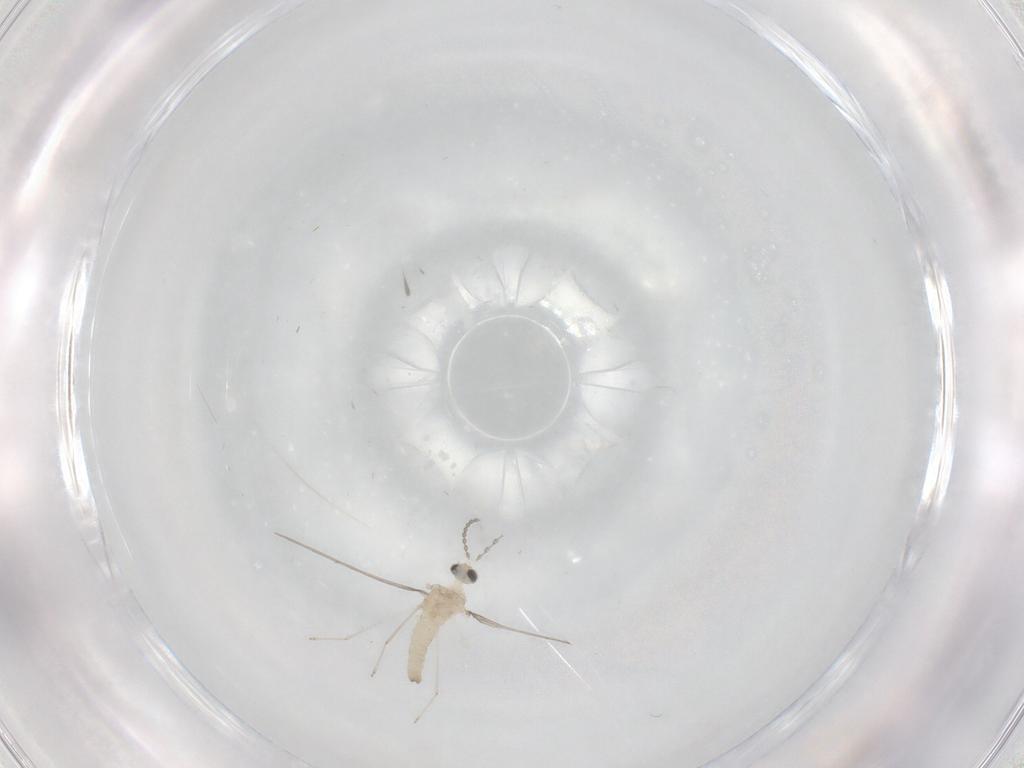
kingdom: Animalia
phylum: Arthropoda
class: Insecta
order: Diptera
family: Cecidomyiidae
